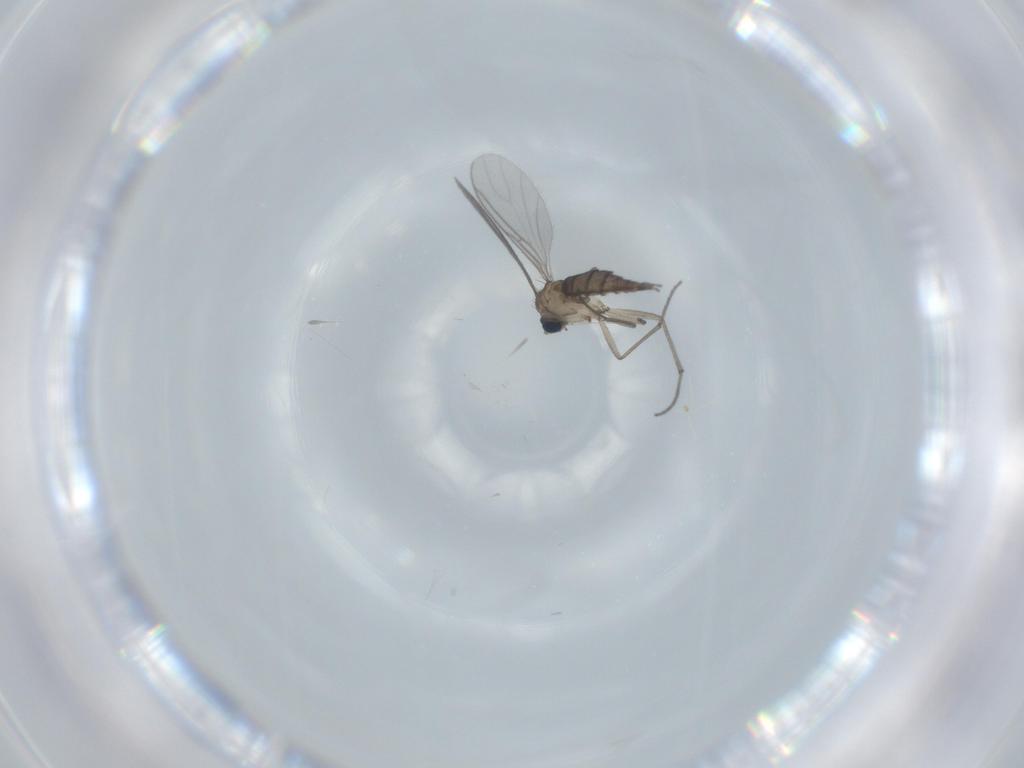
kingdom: Animalia
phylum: Arthropoda
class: Insecta
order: Diptera
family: Sciaridae
